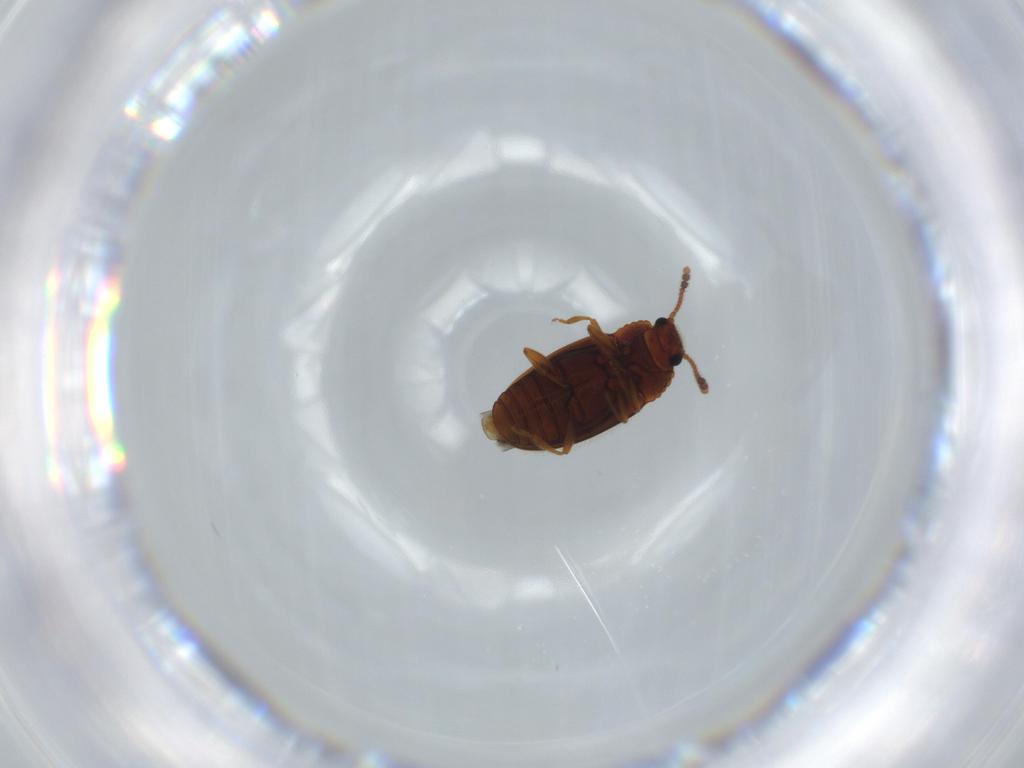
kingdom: Animalia
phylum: Arthropoda
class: Insecta
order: Coleoptera
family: Erotylidae
